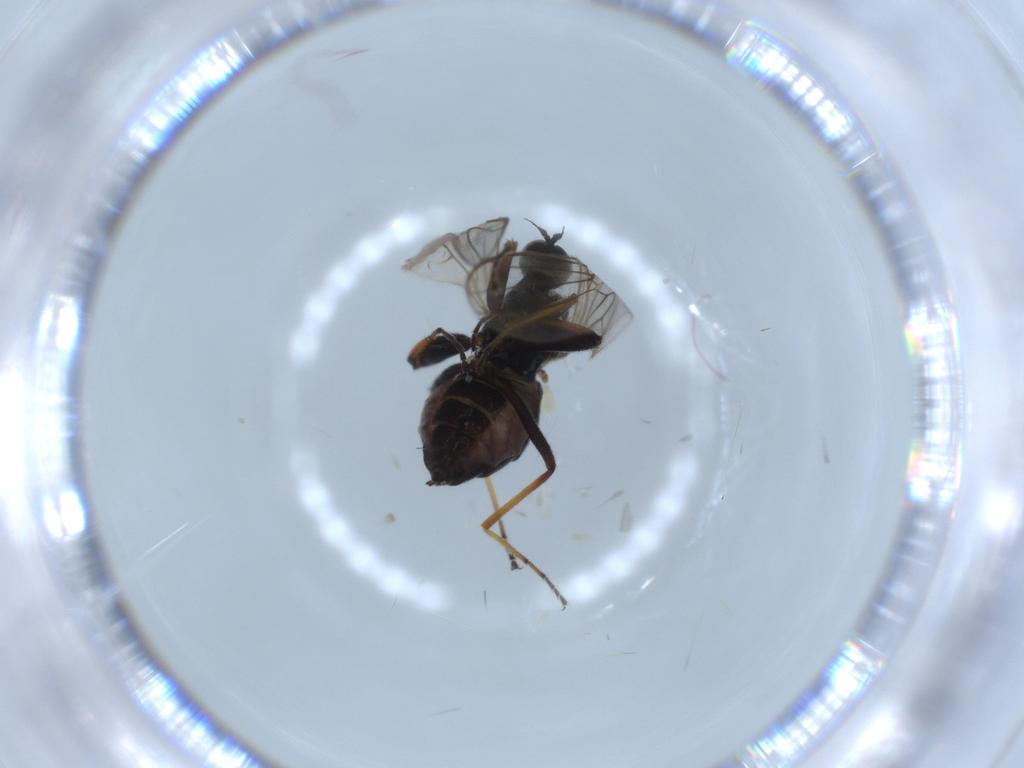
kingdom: Animalia
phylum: Arthropoda
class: Insecta
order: Diptera
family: Hybotidae
